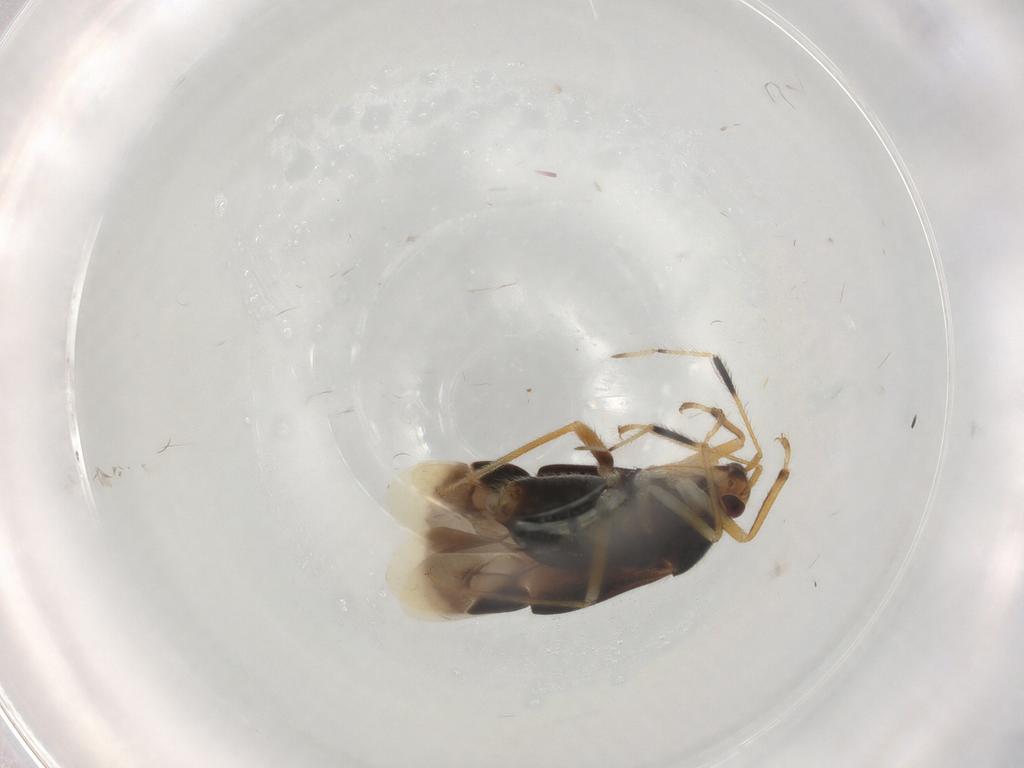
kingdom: Animalia
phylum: Arthropoda
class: Insecta
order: Hemiptera
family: Miridae
